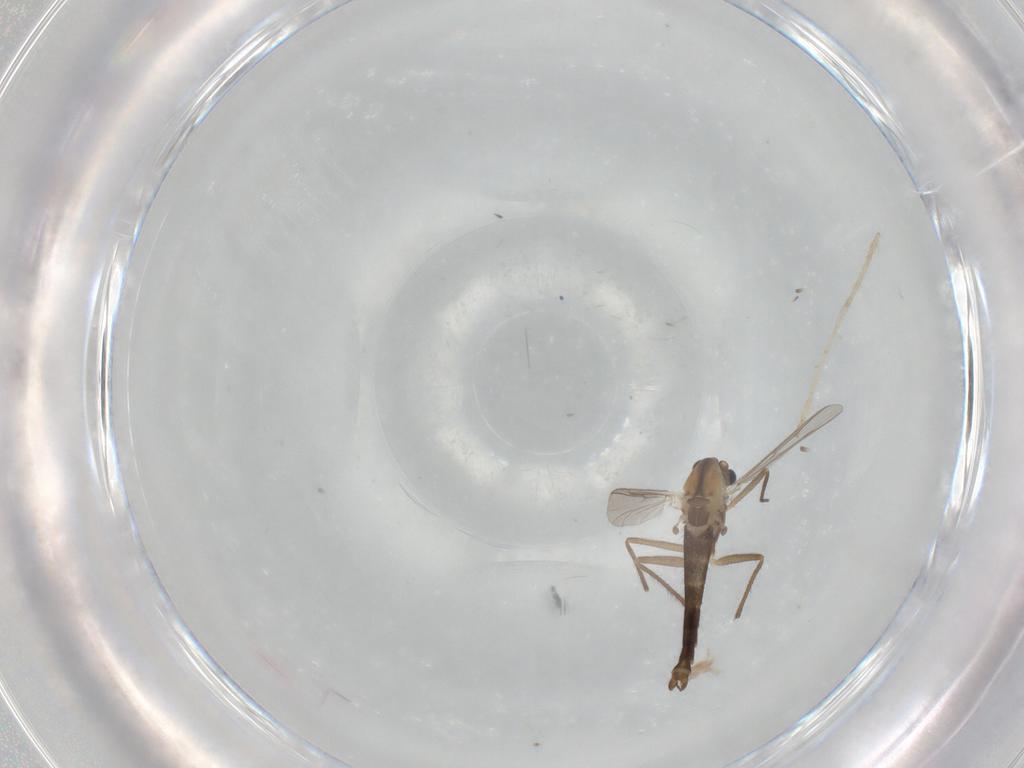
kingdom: Animalia
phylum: Arthropoda
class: Insecta
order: Diptera
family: Chironomidae
